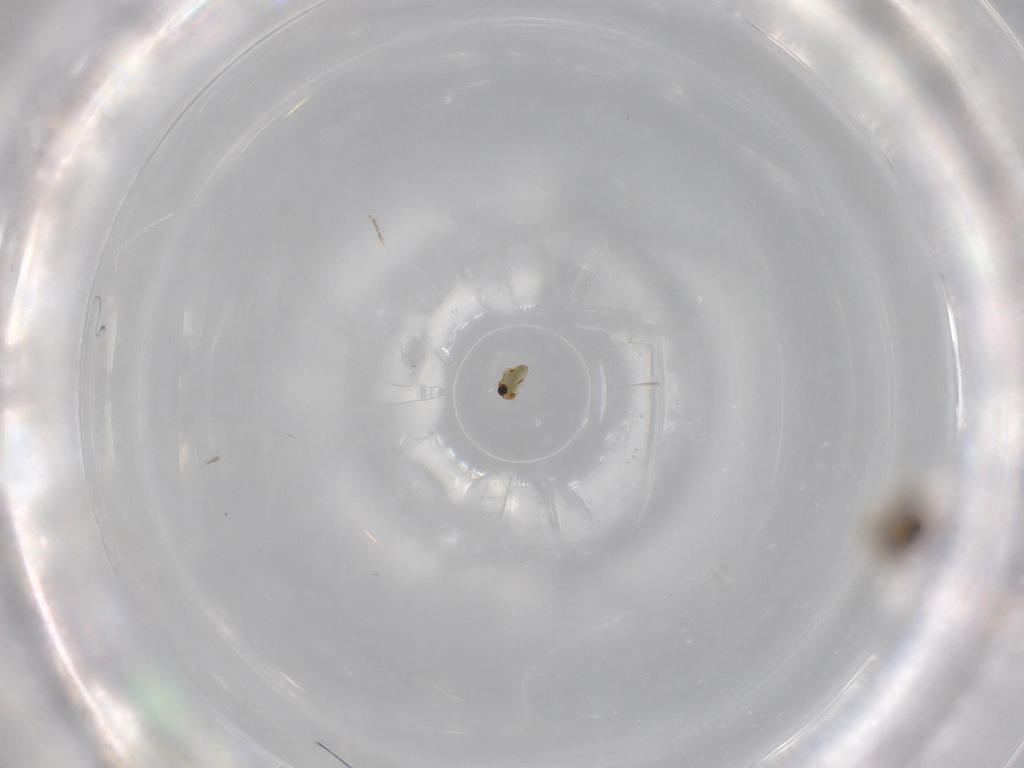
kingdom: Animalia
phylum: Arthropoda
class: Insecta
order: Diptera
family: Ceratopogonidae
